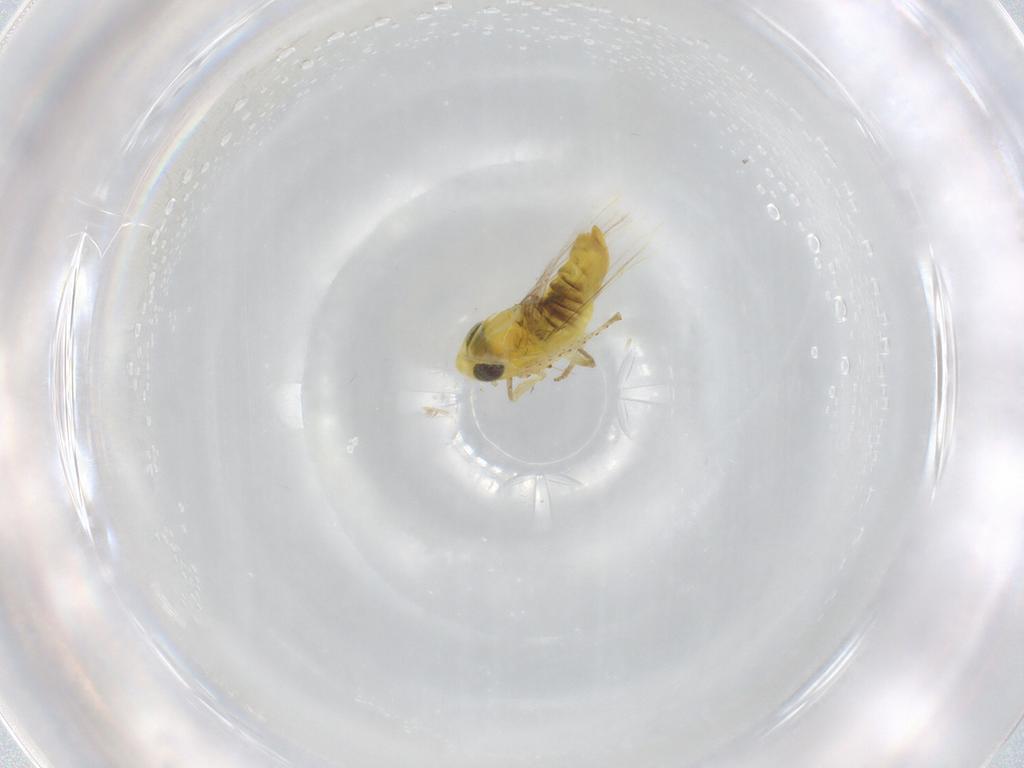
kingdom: Animalia
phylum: Arthropoda
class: Insecta
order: Hemiptera
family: Cicadellidae
